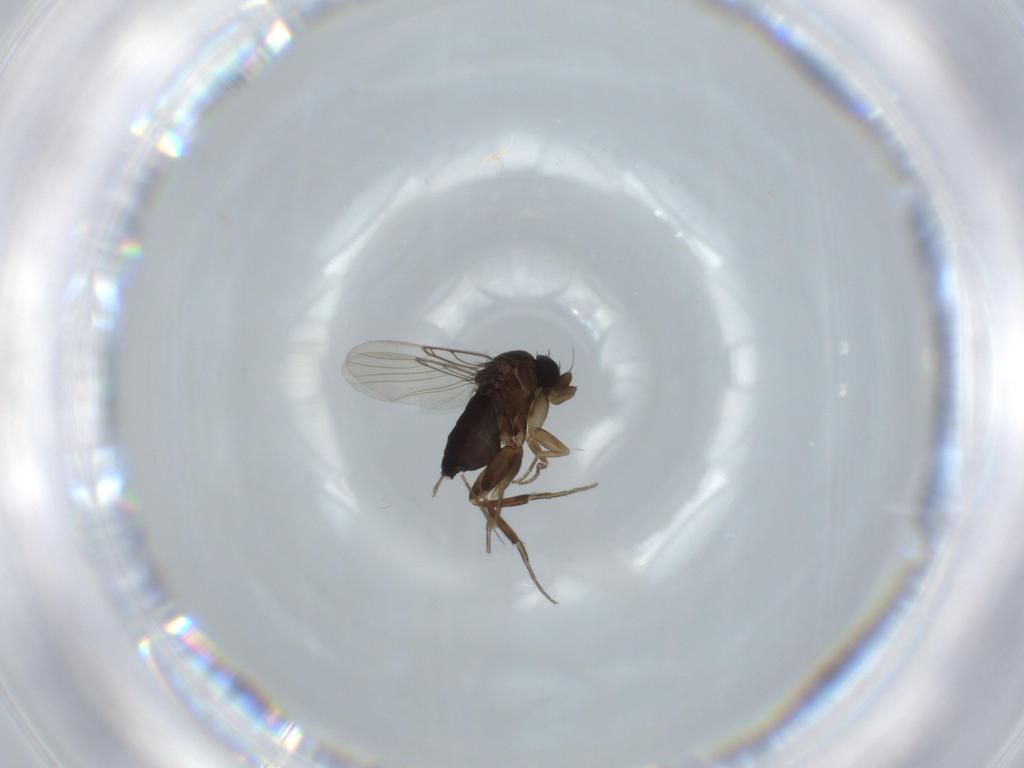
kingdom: Animalia
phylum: Arthropoda
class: Insecta
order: Diptera
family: Phoridae
